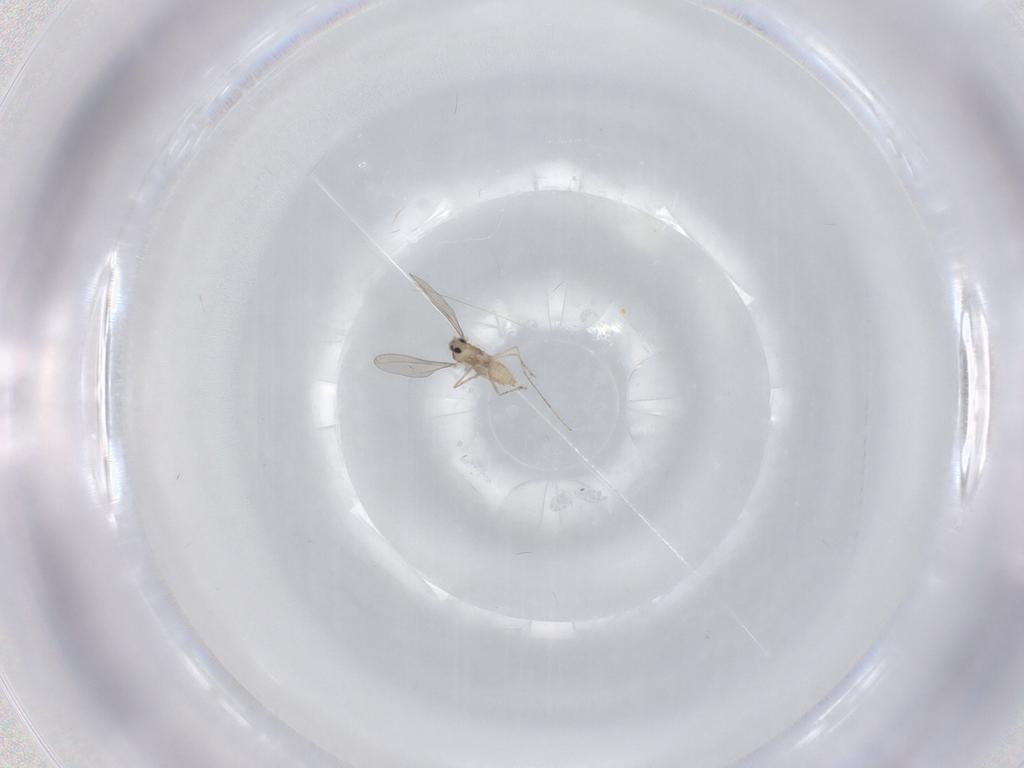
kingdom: Animalia
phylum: Arthropoda
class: Insecta
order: Diptera
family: Cecidomyiidae
